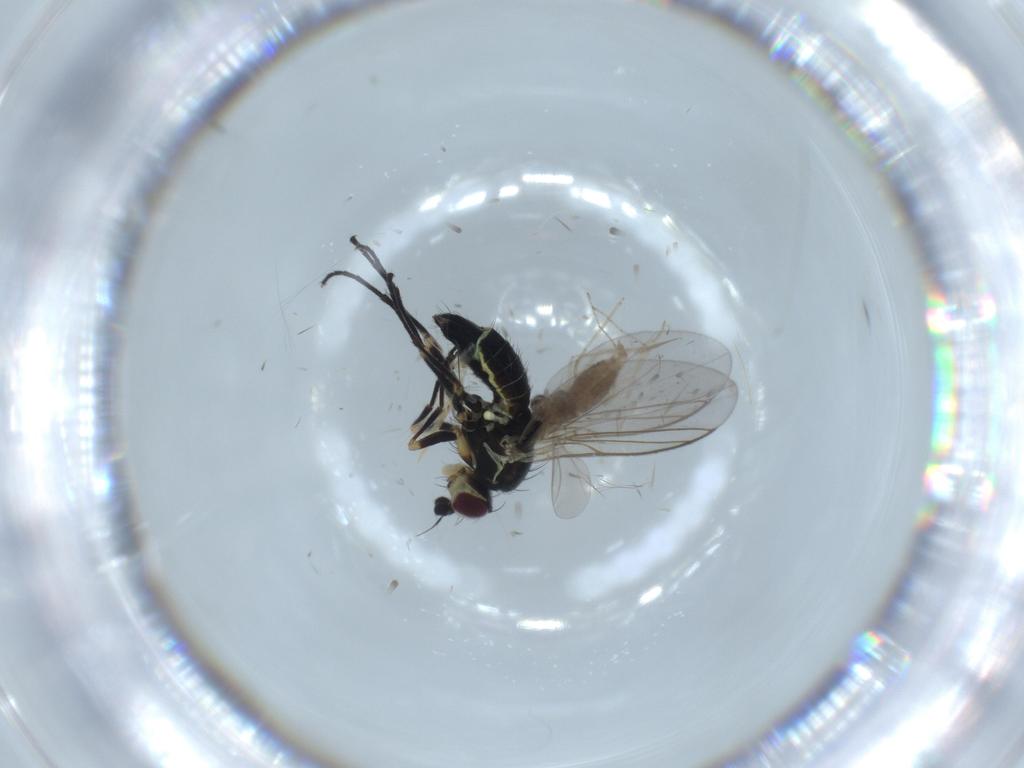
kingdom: Animalia
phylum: Arthropoda
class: Insecta
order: Diptera
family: Agromyzidae
